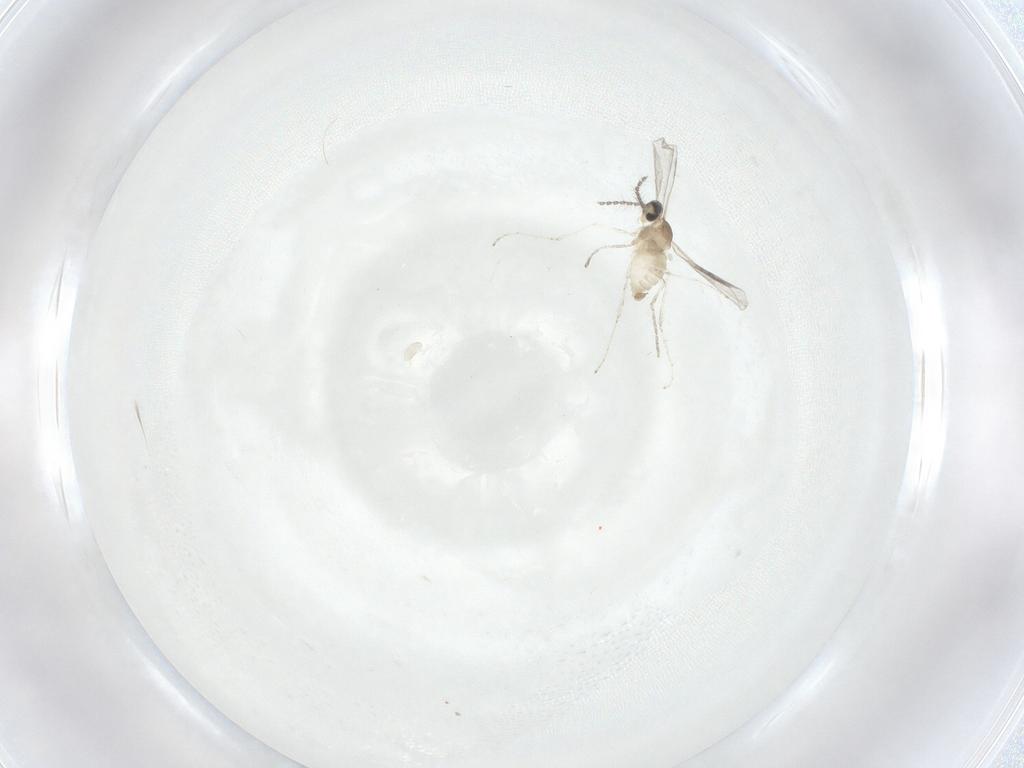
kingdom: Animalia
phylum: Arthropoda
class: Insecta
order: Diptera
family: Cecidomyiidae
